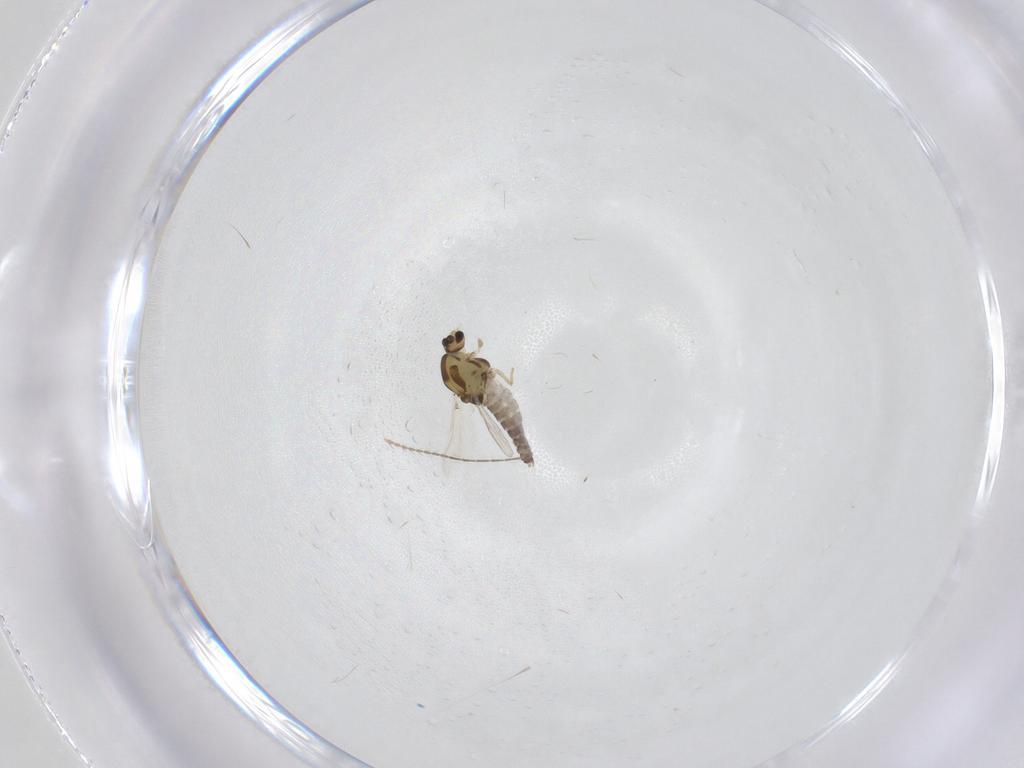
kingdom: Animalia
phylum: Arthropoda
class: Insecta
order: Diptera
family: Chironomidae
